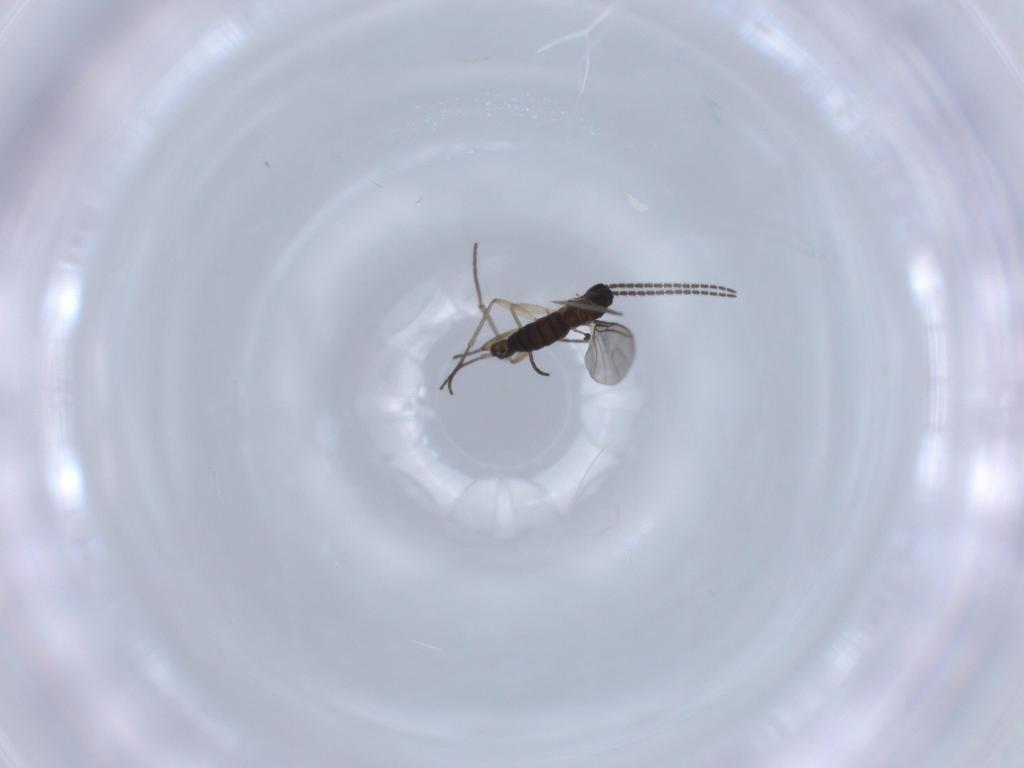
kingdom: Animalia
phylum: Arthropoda
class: Insecta
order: Diptera
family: Sciaridae
